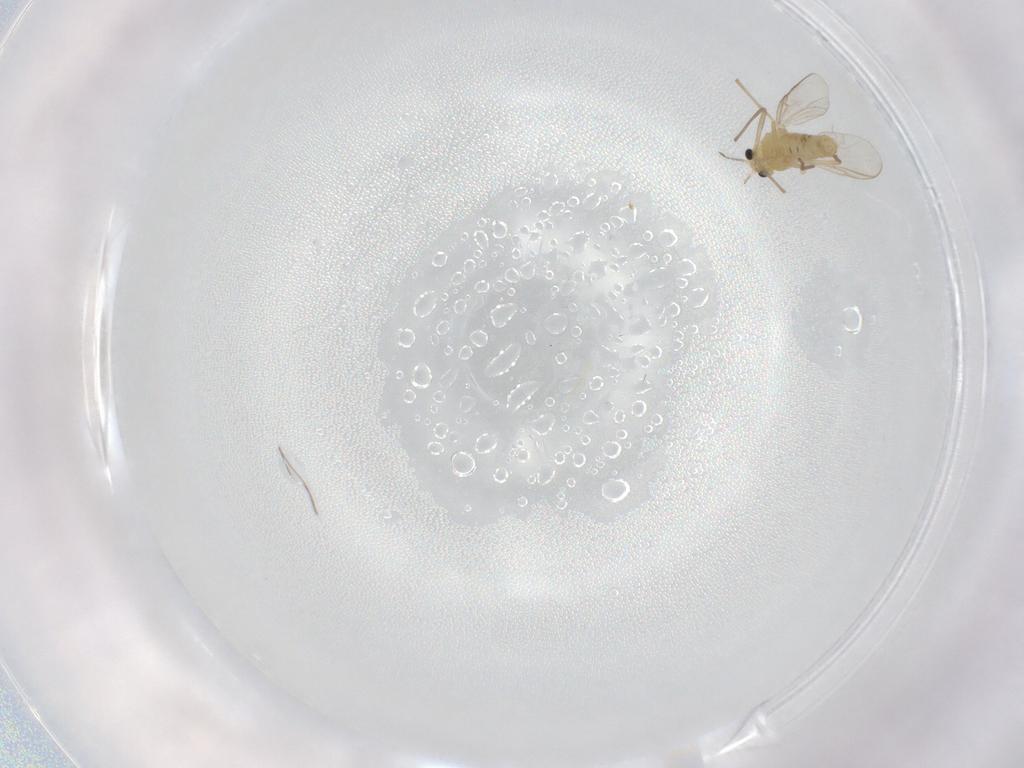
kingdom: Animalia
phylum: Arthropoda
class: Insecta
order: Diptera
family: Chironomidae
